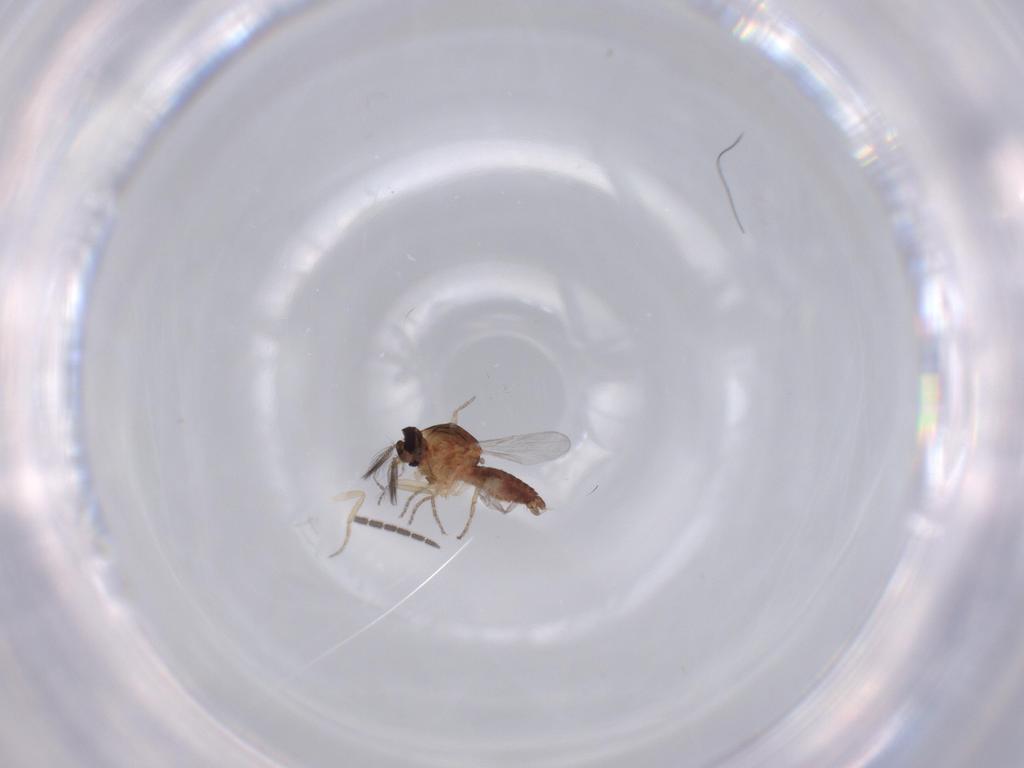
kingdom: Animalia
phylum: Arthropoda
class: Insecta
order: Diptera
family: Ceratopogonidae
